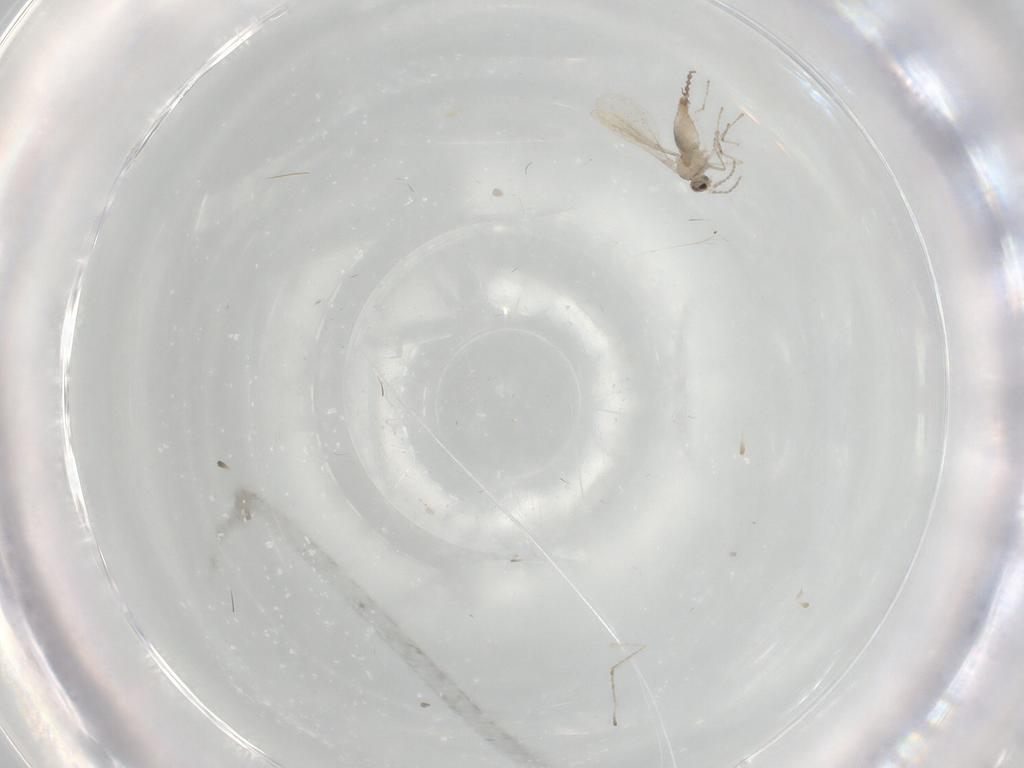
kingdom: Animalia
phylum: Arthropoda
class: Insecta
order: Diptera
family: Cecidomyiidae
